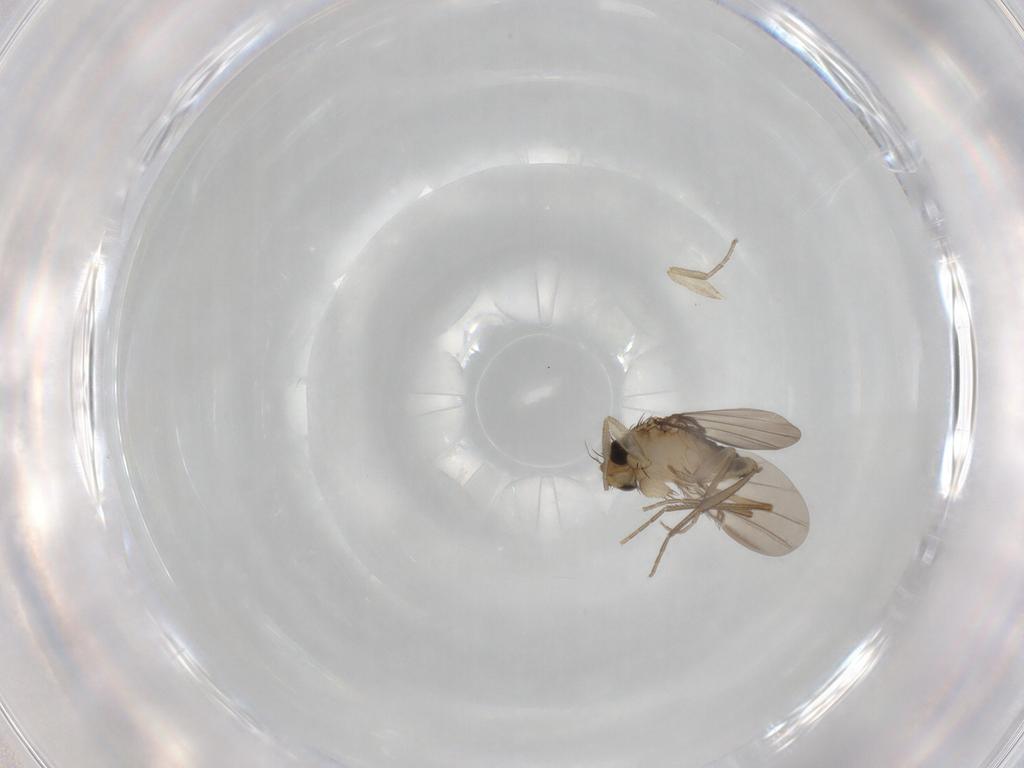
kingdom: Animalia
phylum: Arthropoda
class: Insecta
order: Diptera
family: Phoridae
